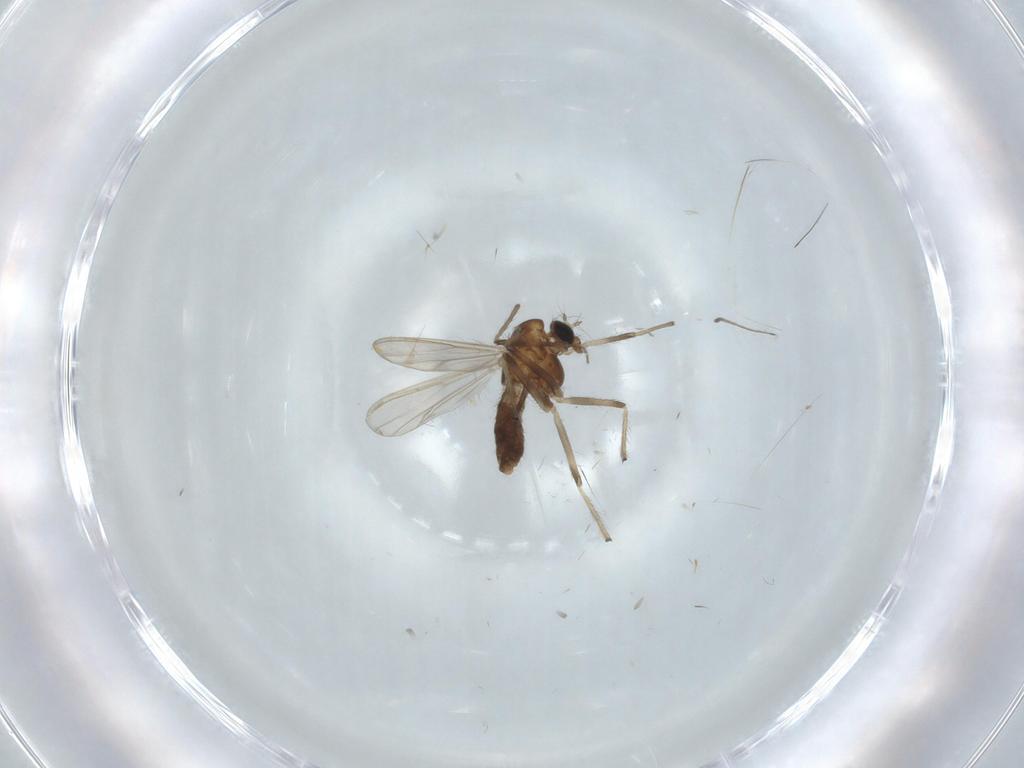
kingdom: Animalia
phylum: Arthropoda
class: Insecta
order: Diptera
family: Chironomidae
